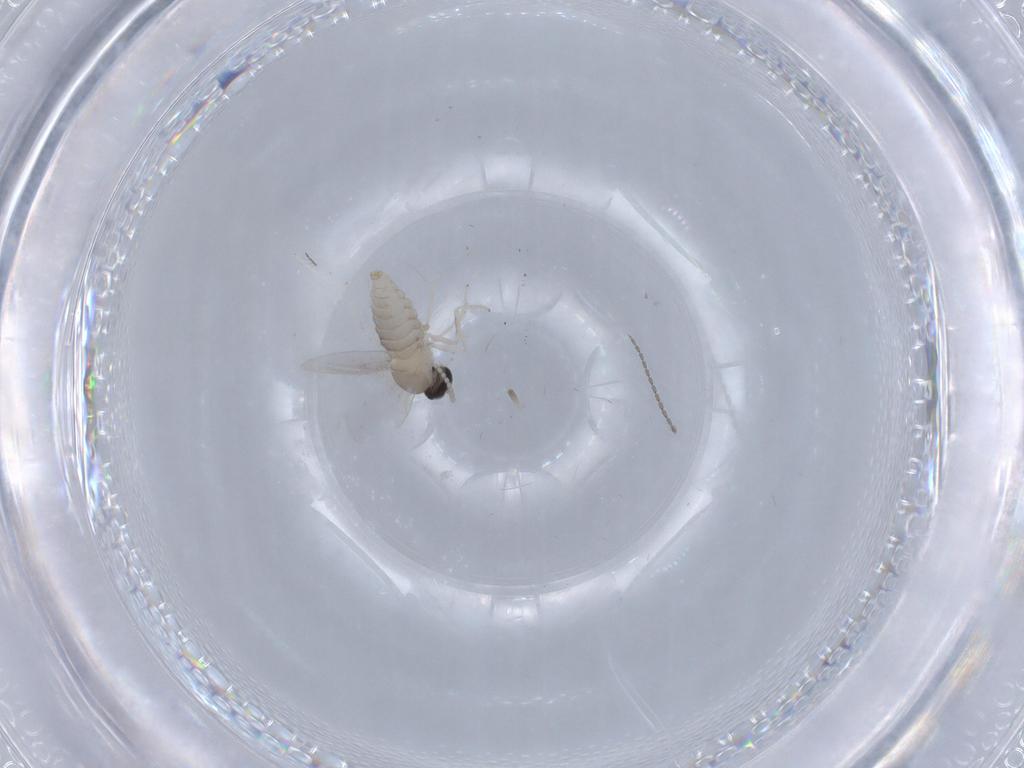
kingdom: Animalia
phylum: Arthropoda
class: Insecta
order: Diptera
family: Cecidomyiidae
